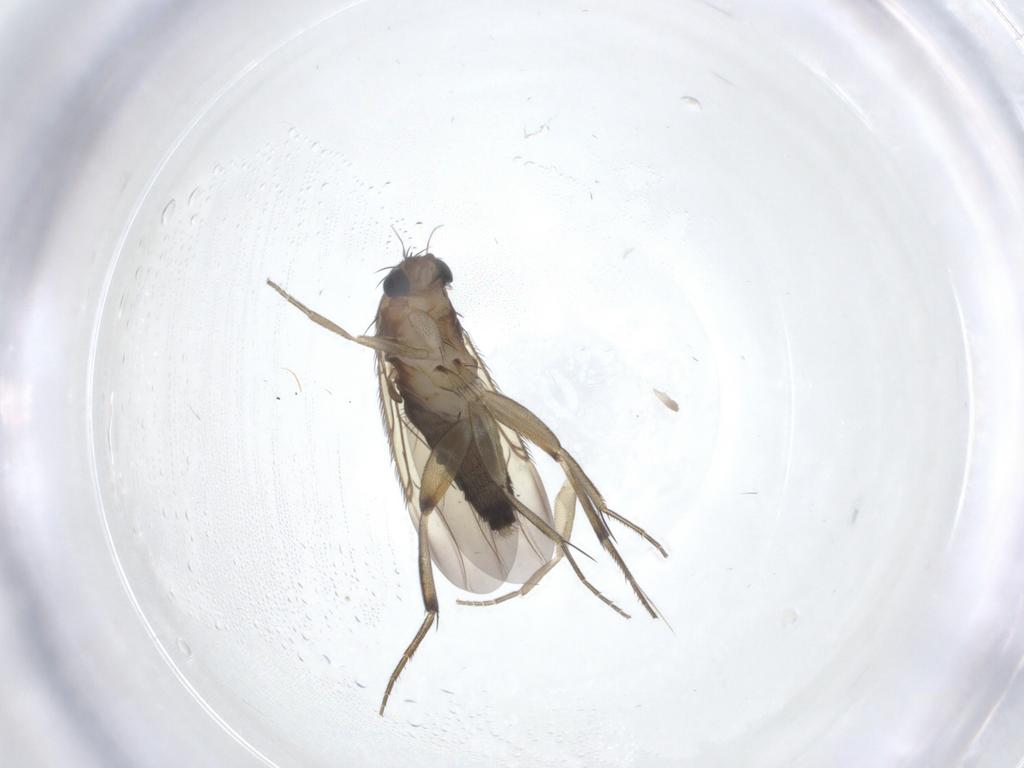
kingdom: Animalia
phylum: Arthropoda
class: Insecta
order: Diptera
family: Phoridae
